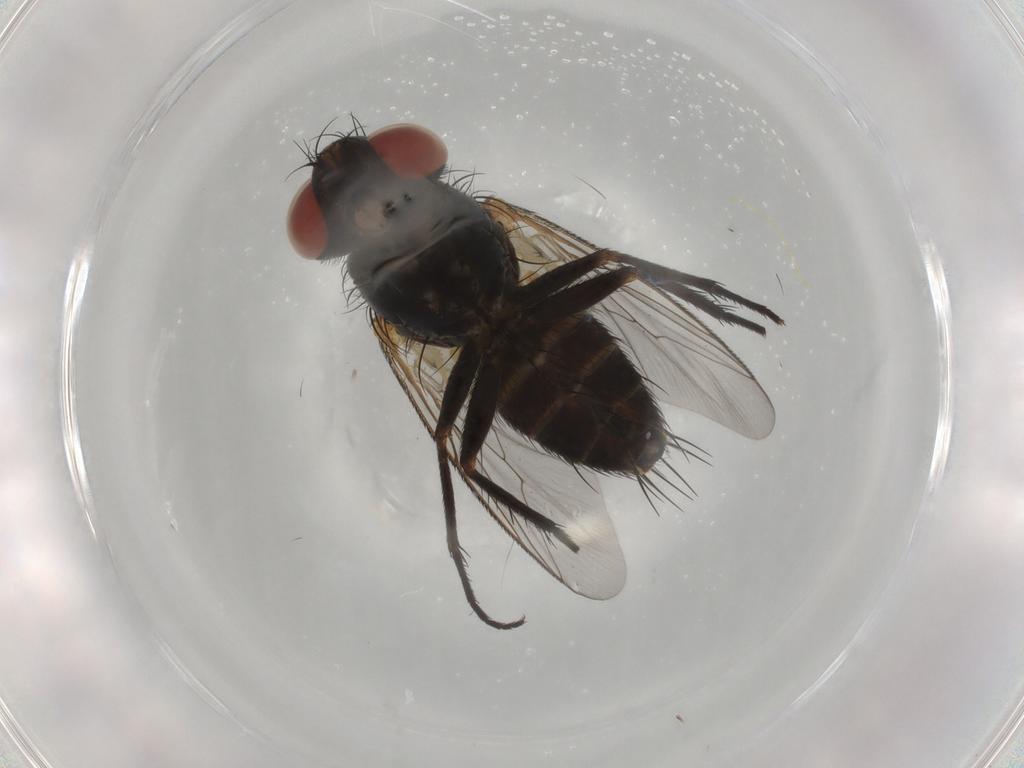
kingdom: Animalia
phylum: Arthropoda
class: Insecta
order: Diptera
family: Sarcophagidae
